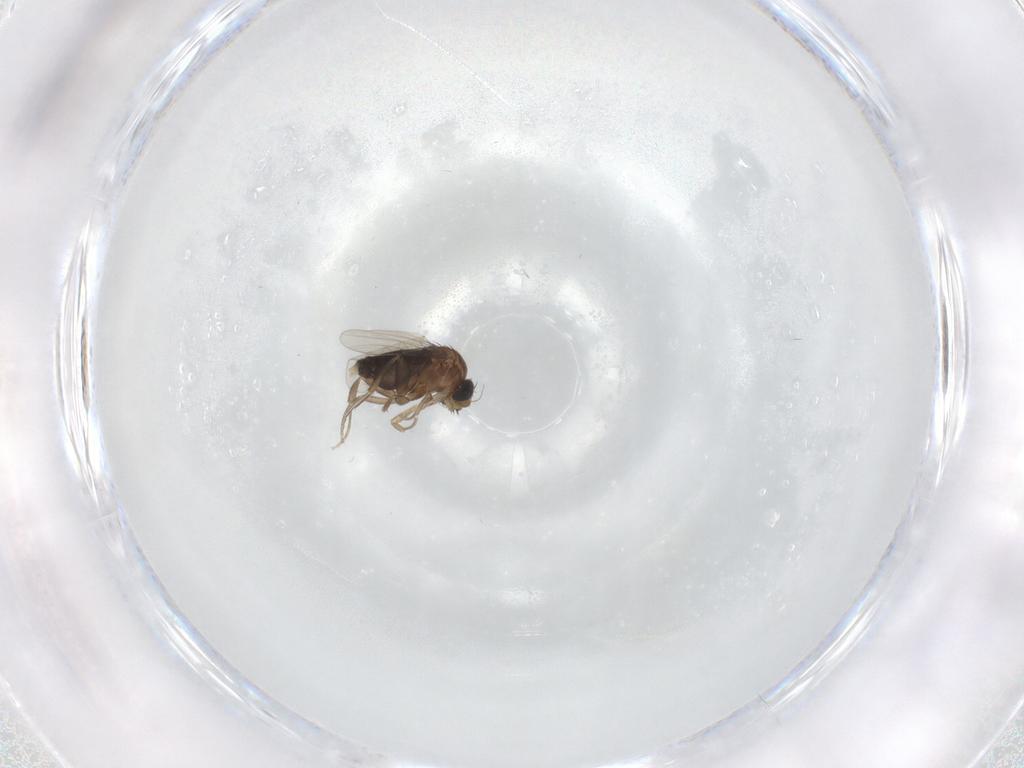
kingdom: Animalia
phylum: Arthropoda
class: Insecta
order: Diptera
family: Phoridae
